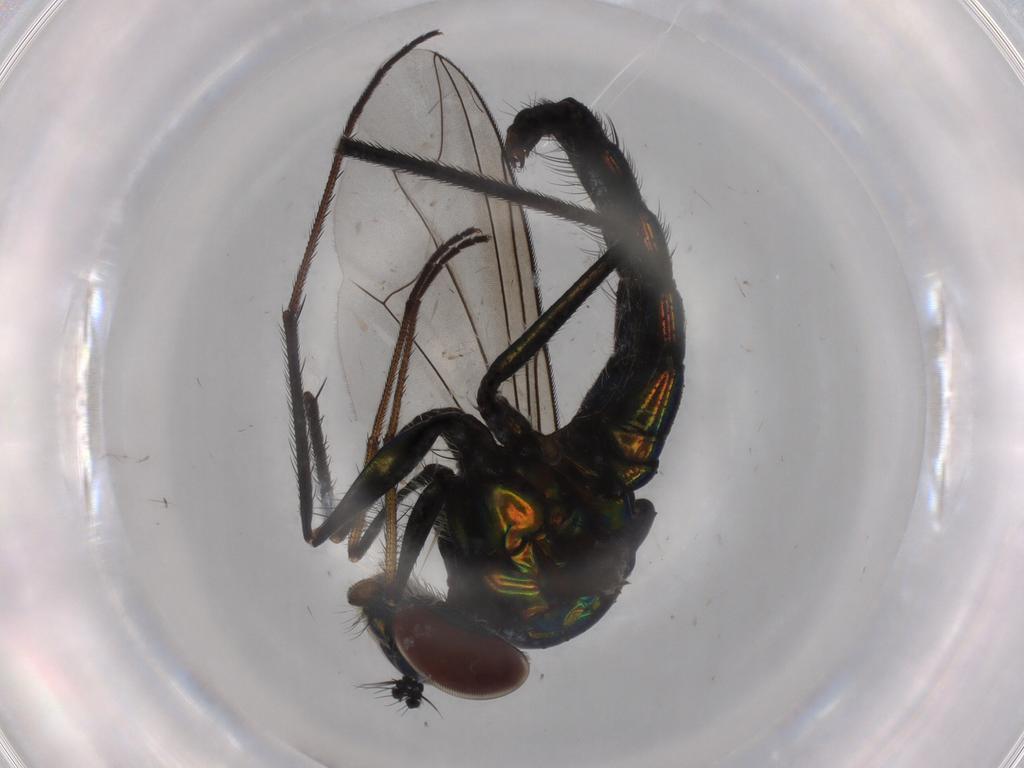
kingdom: Animalia
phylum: Arthropoda
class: Insecta
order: Diptera
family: Dolichopodidae
